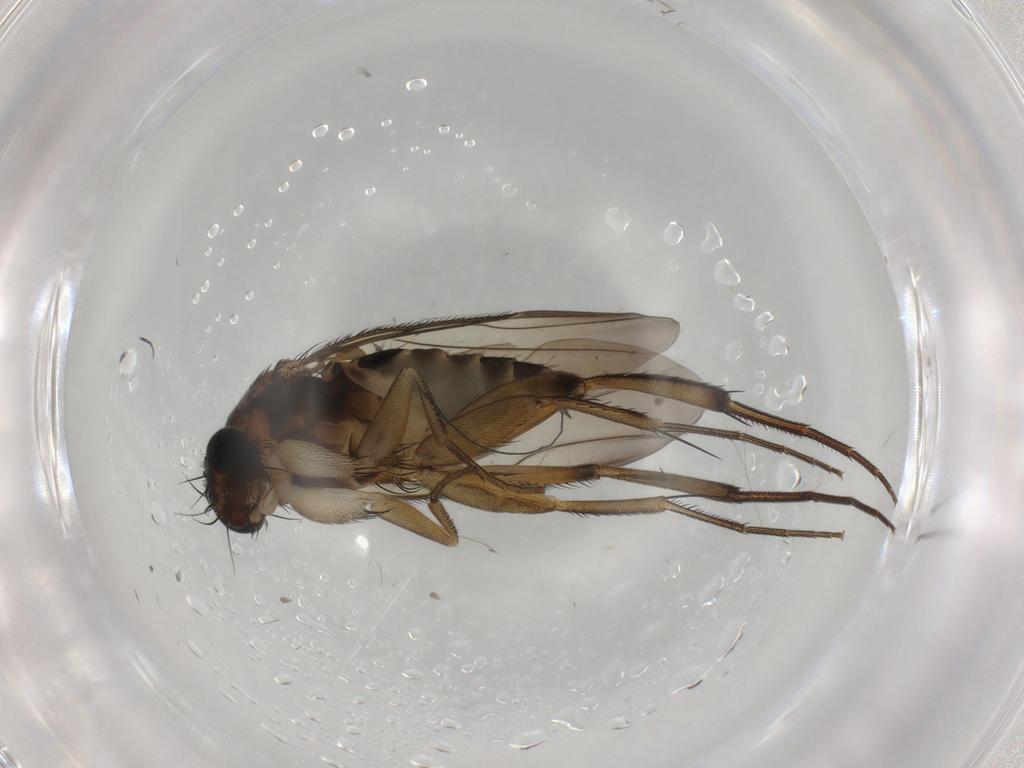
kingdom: Animalia
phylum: Arthropoda
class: Insecta
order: Diptera
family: Phoridae
